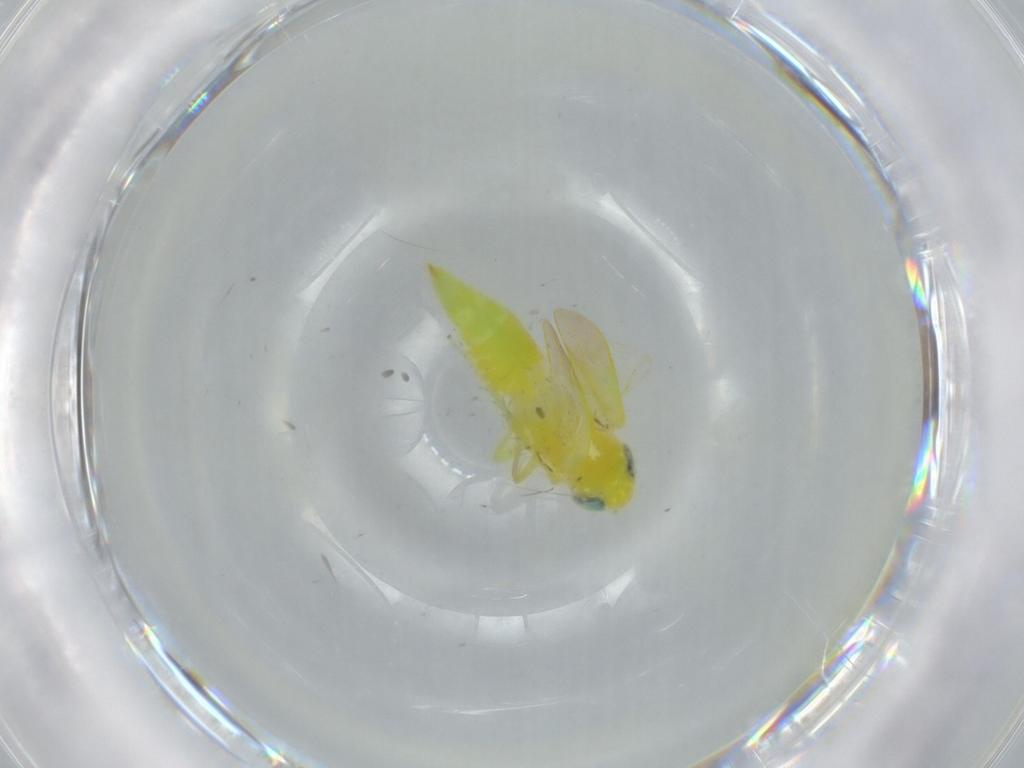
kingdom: Animalia
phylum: Arthropoda
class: Insecta
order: Hemiptera
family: Cicadellidae
